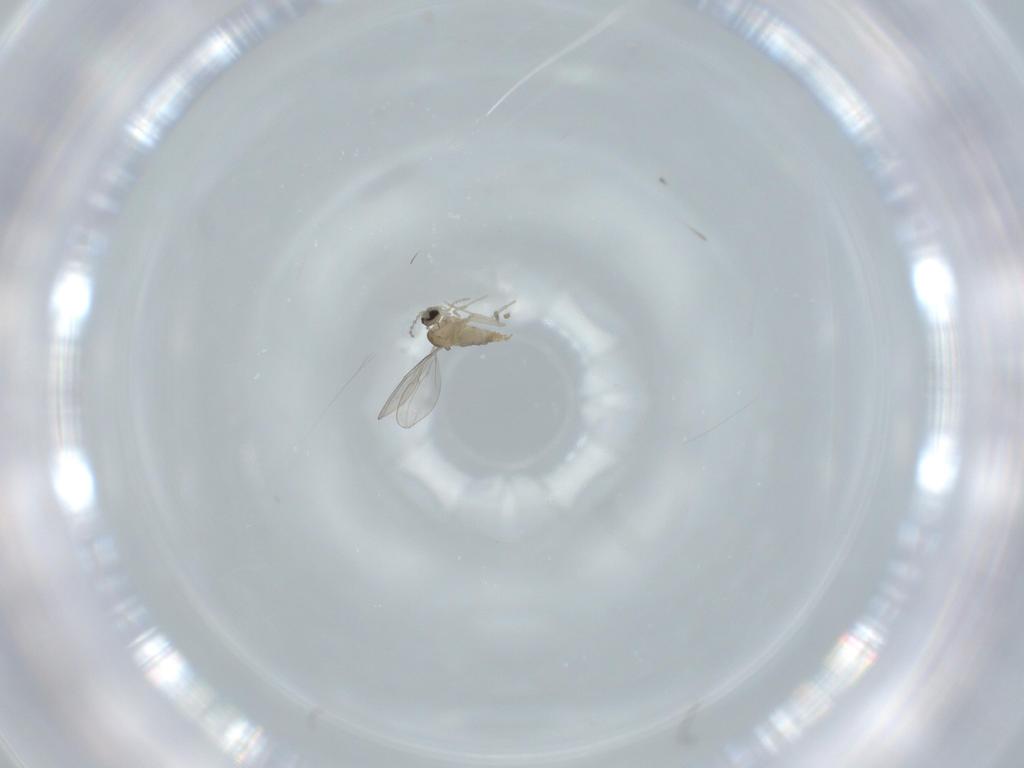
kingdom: Animalia
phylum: Arthropoda
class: Insecta
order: Diptera
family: Cecidomyiidae
